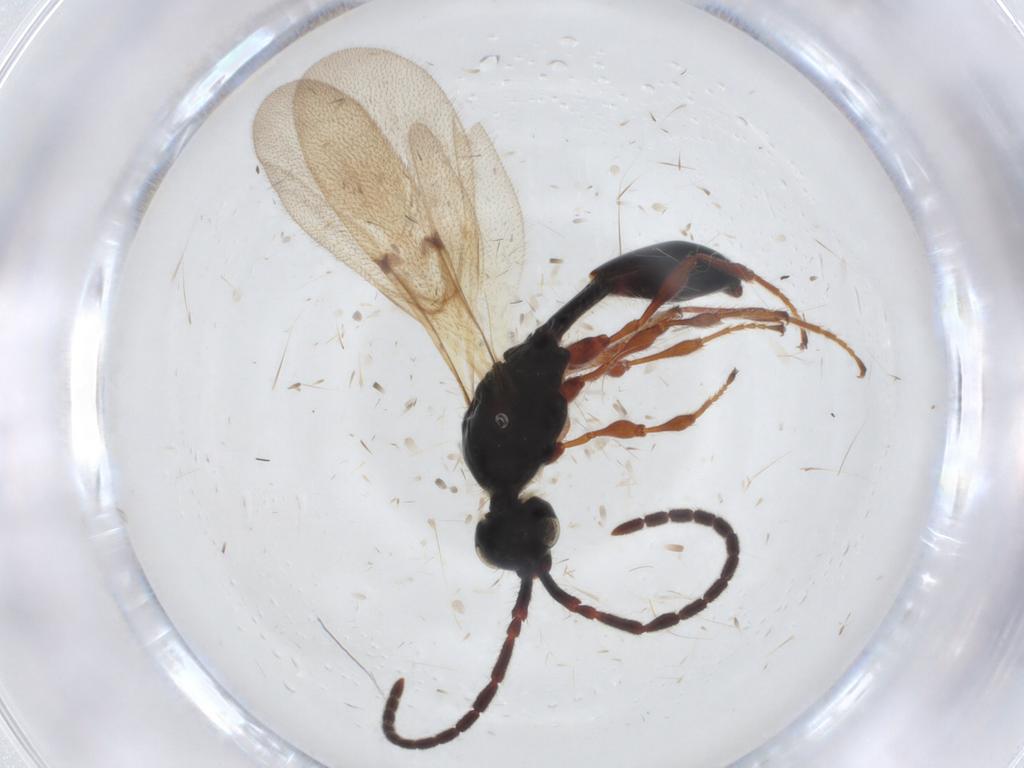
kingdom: Animalia
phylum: Arthropoda
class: Insecta
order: Hymenoptera
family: Diapriidae
